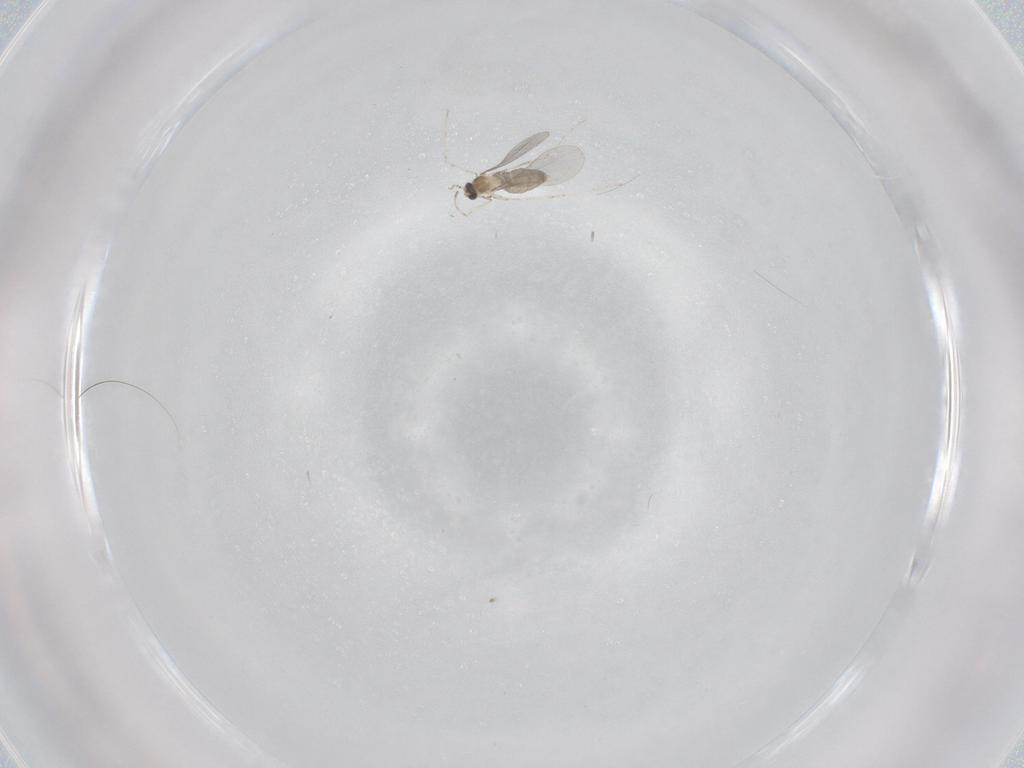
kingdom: Animalia
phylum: Arthropoda
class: Insecta
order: Diptera
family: Cecidomyiidae
